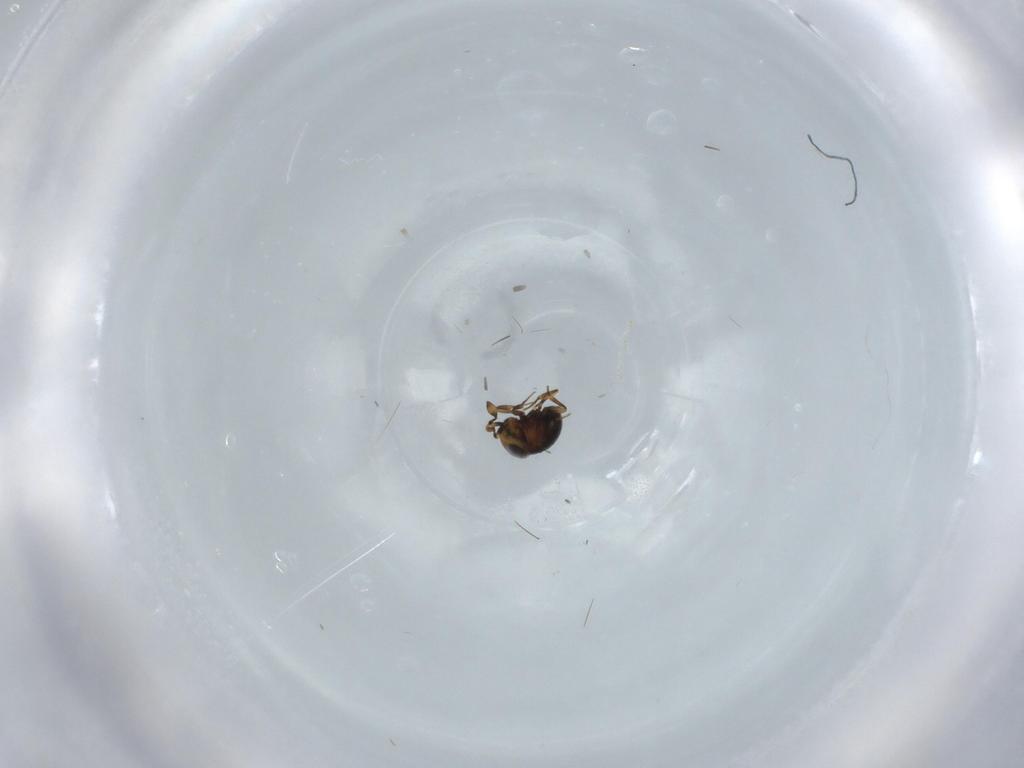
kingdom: Animalia
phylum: Arthropoda
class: Insecta
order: Hymenoptera
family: Scelionidae
